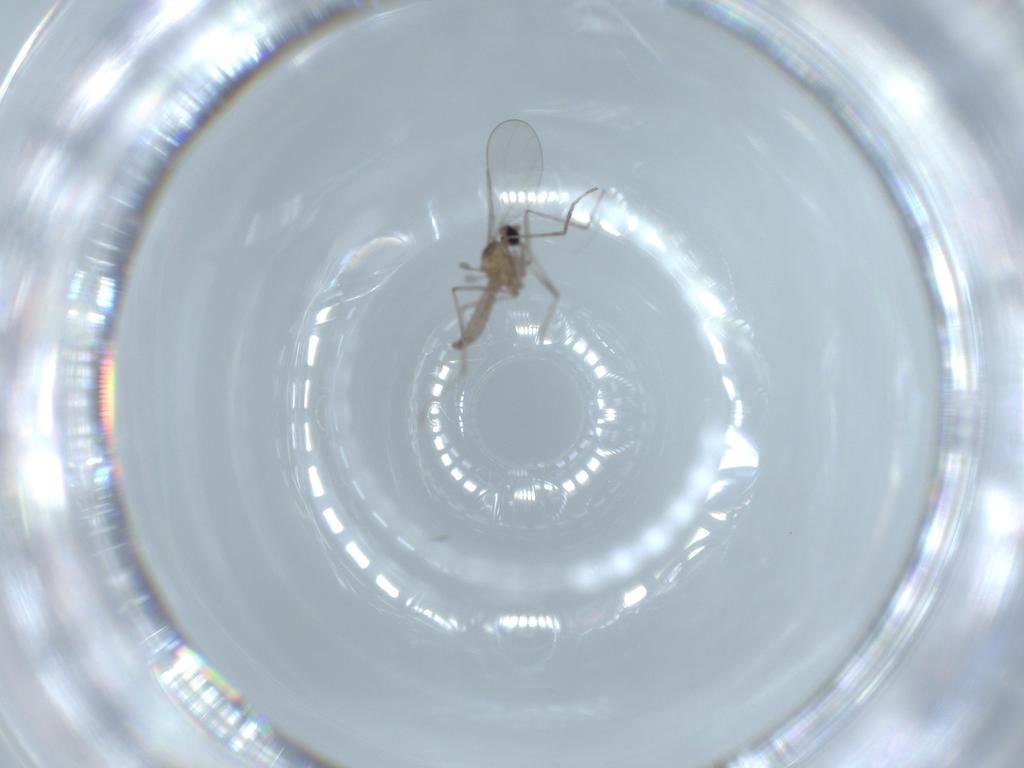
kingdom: Animalia
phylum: Arthropoda
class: Insecta
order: Diptera
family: Cecidomyiidae
